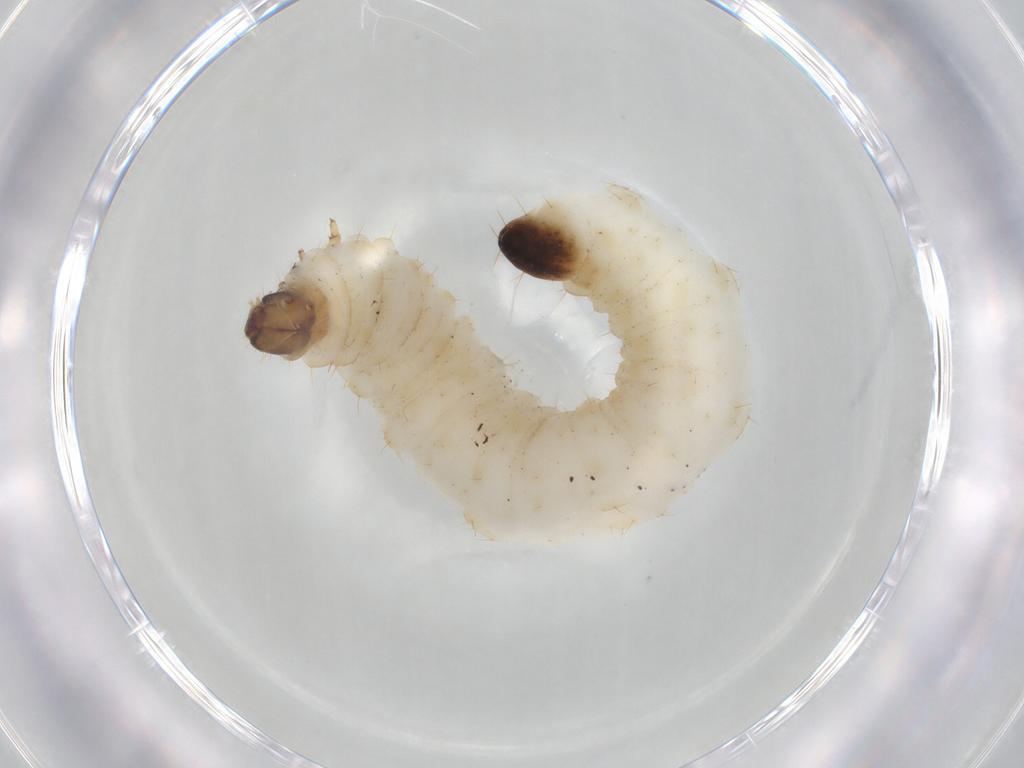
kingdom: Animalia
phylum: Arthropoda
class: Insecta
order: Coleoptera
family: Chrysomelidae
